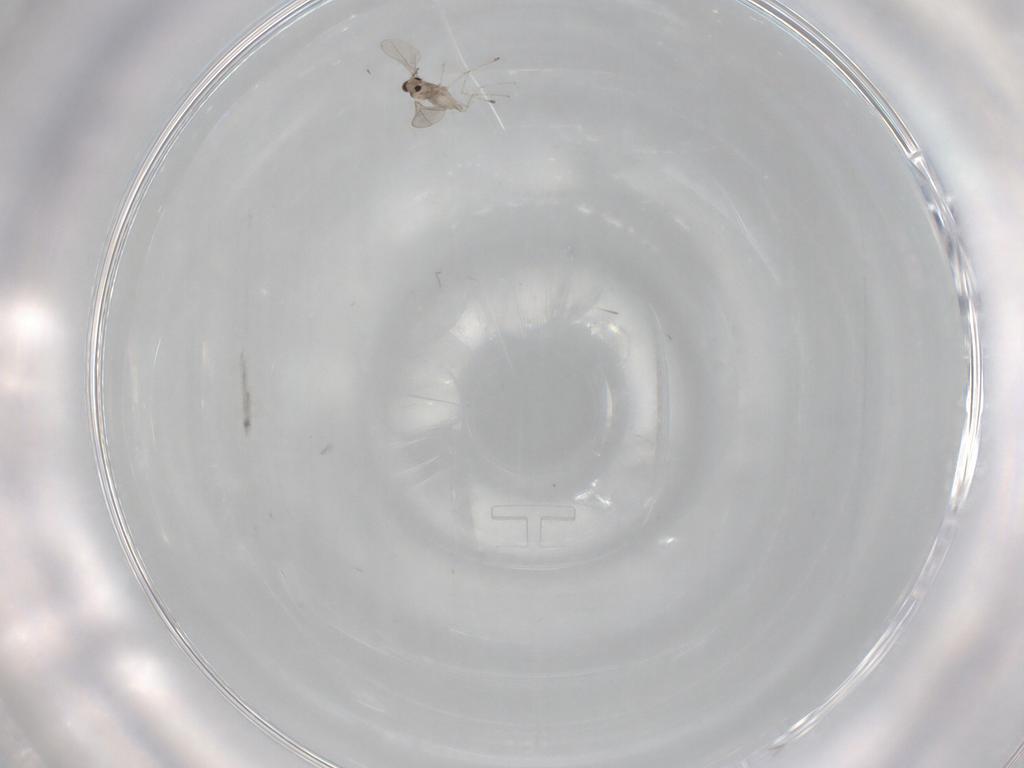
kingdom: Animalia
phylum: Arthropoda
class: Insecta
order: Diptera
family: Cecidomyiidae
